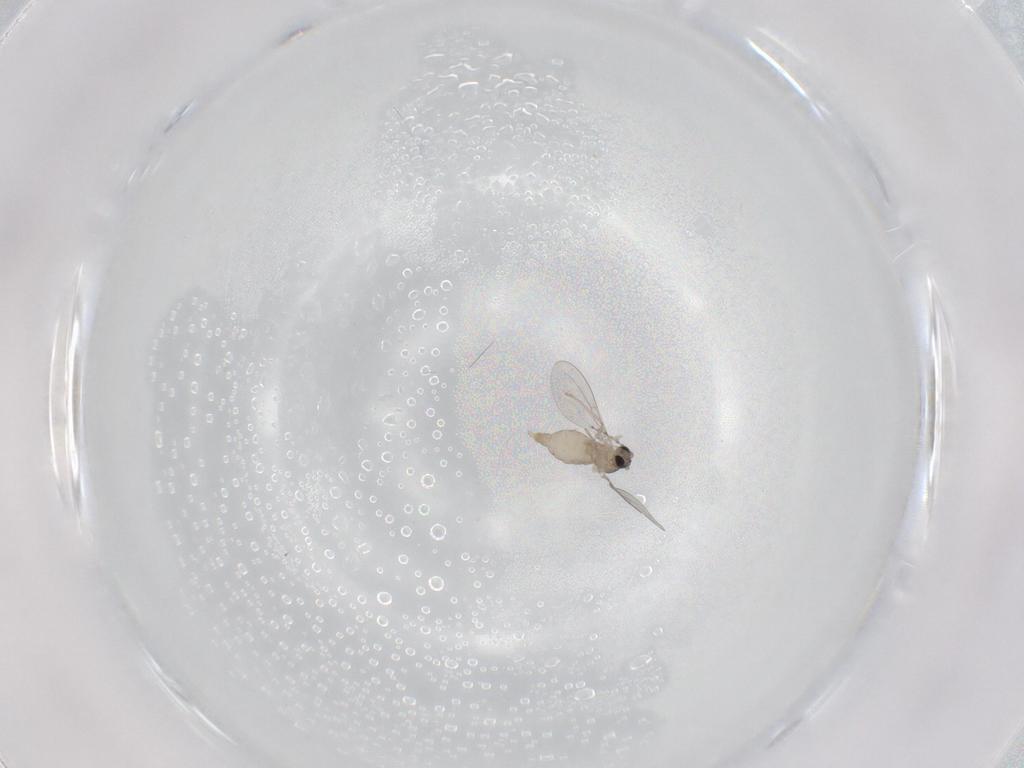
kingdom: Animalia
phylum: Arthropoda
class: Insecta
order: Diptera
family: Cecidomyiidae
